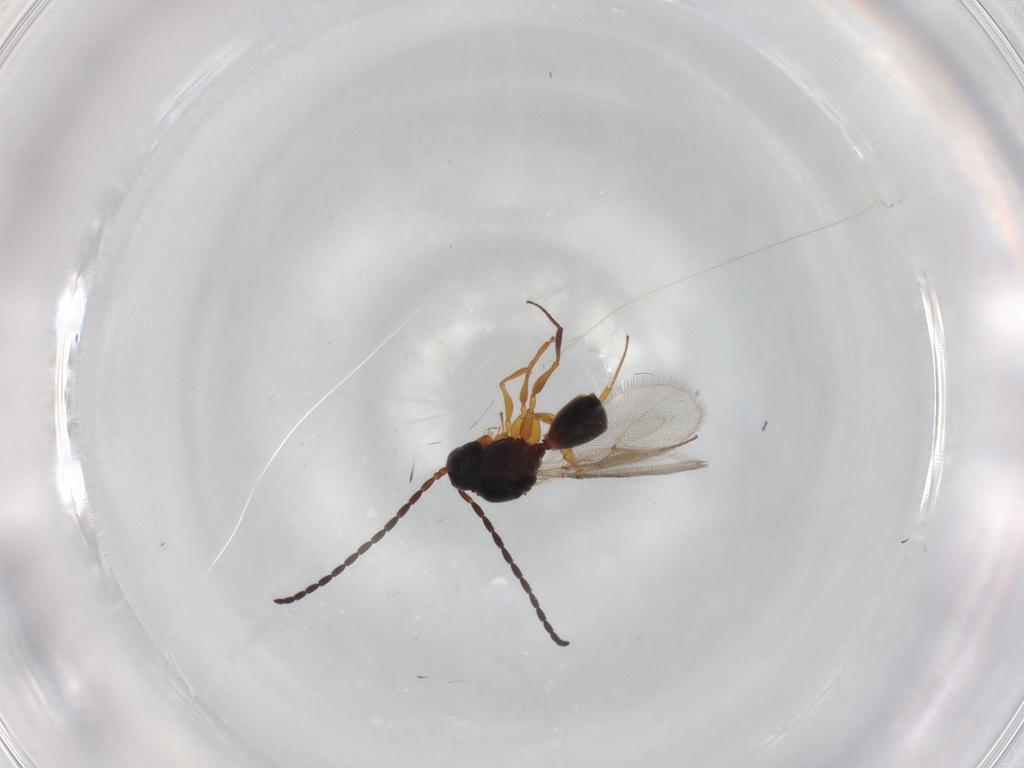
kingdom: Animalia
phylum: Arthropoda
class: Insecta
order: Hymenoptera
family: Figitidae
